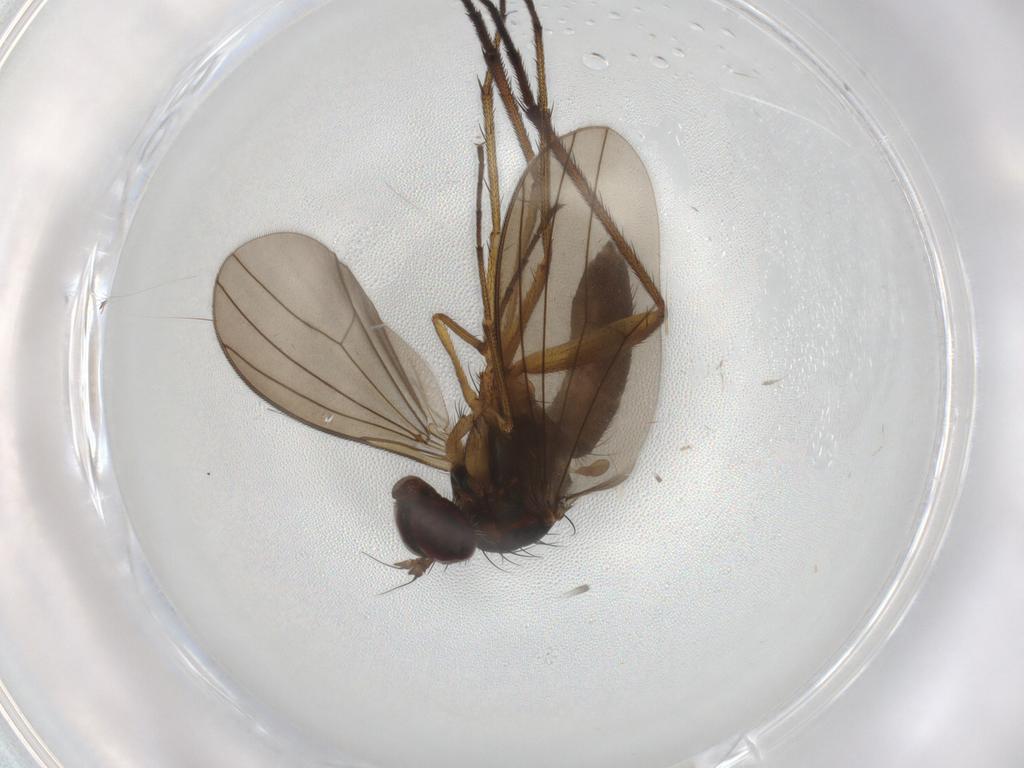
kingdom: Animalia
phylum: Arthropoda
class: Insecta
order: Diptera
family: Dolichopodidae
